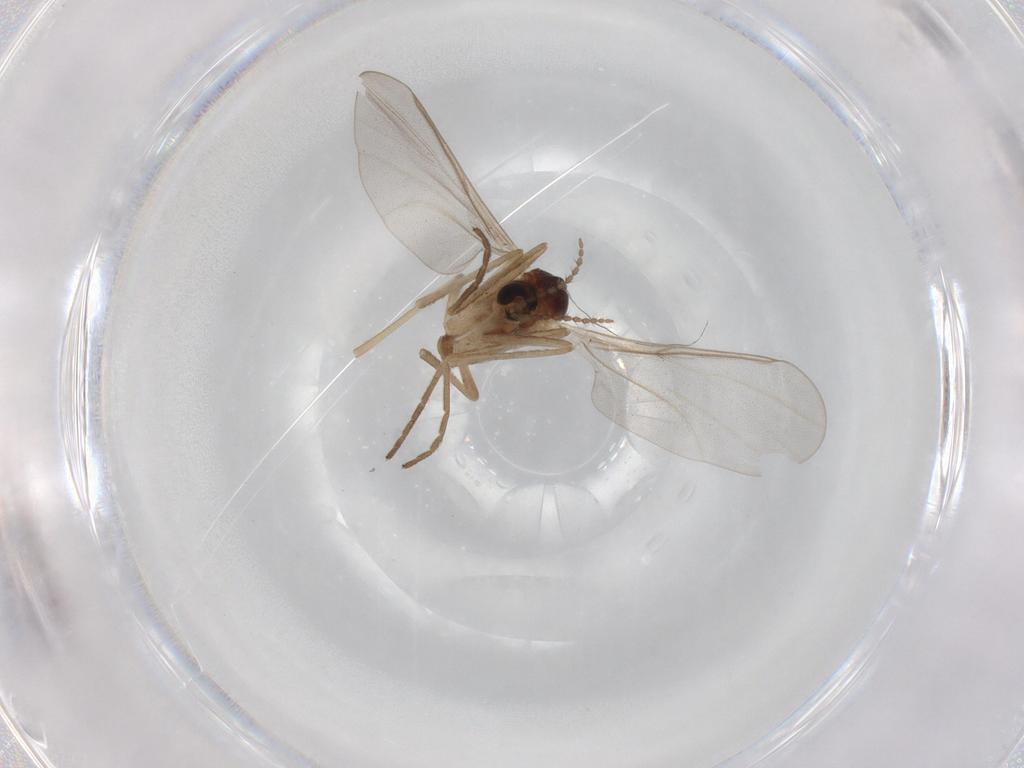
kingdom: Animalia
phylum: Arthropoda
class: Insecta
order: Diptera
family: Cecidomyiidae
